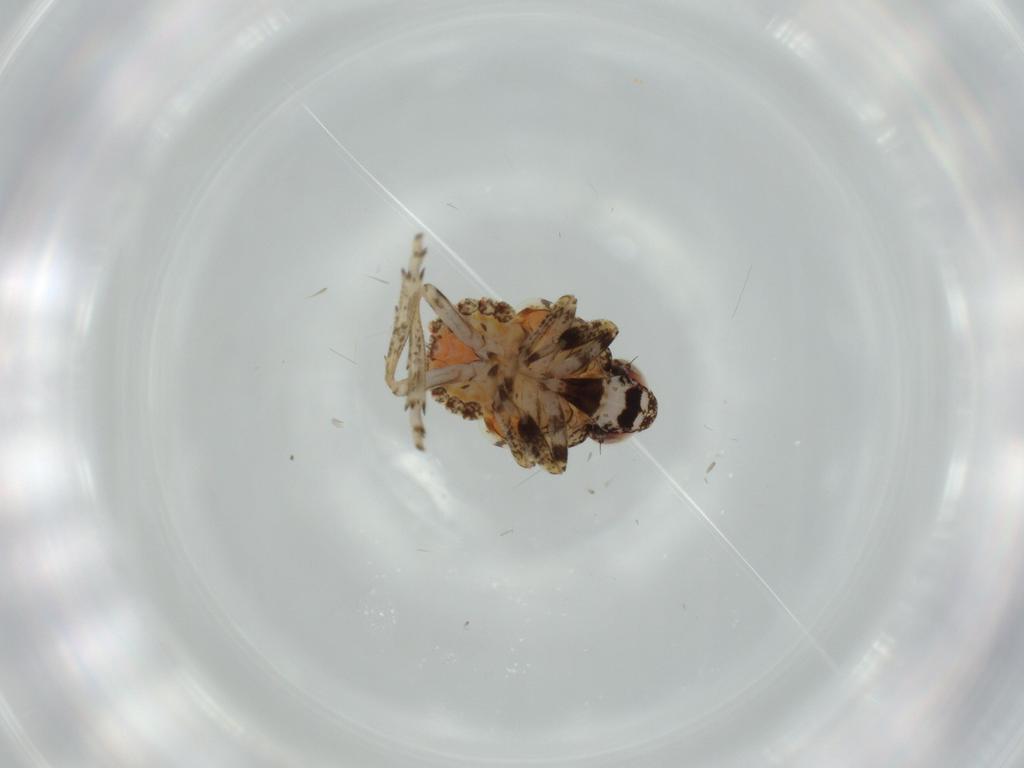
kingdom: Animalia
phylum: Arthropoda
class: Insecta
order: Hemiptera
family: Issidae
